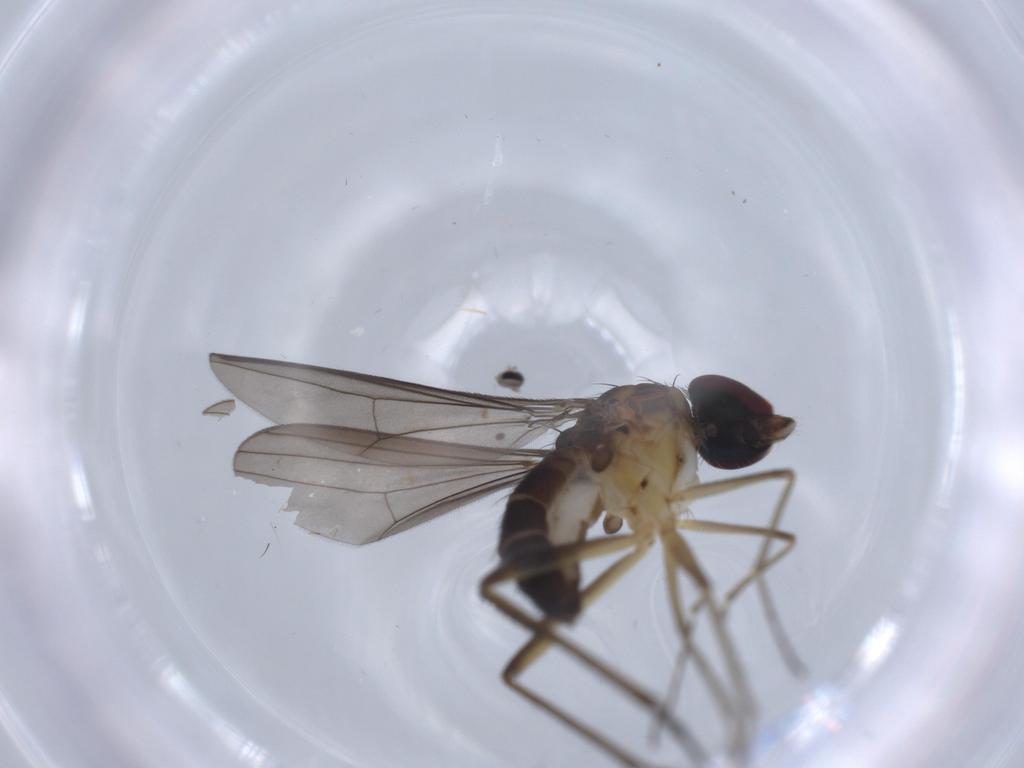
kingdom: Animalia
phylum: Arthropoda
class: Insecta
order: Diptera
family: Dolichopodidae
